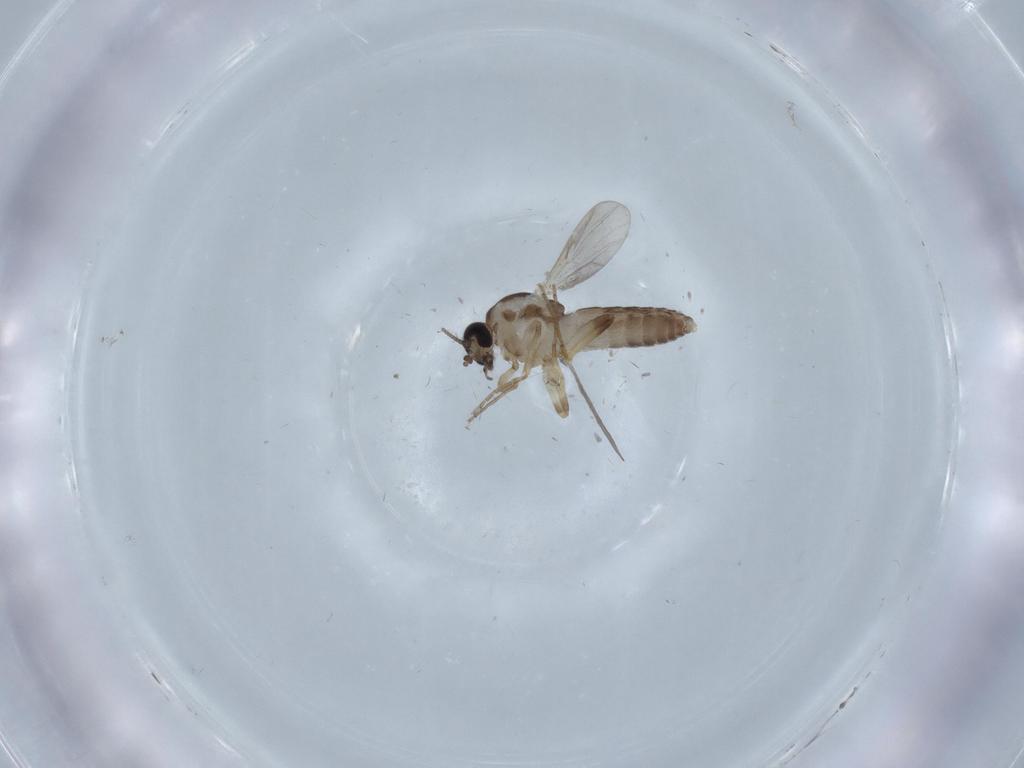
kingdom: Animalia
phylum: Arthropoda
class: Insecta
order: Diptera
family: Ceratopogonidae
